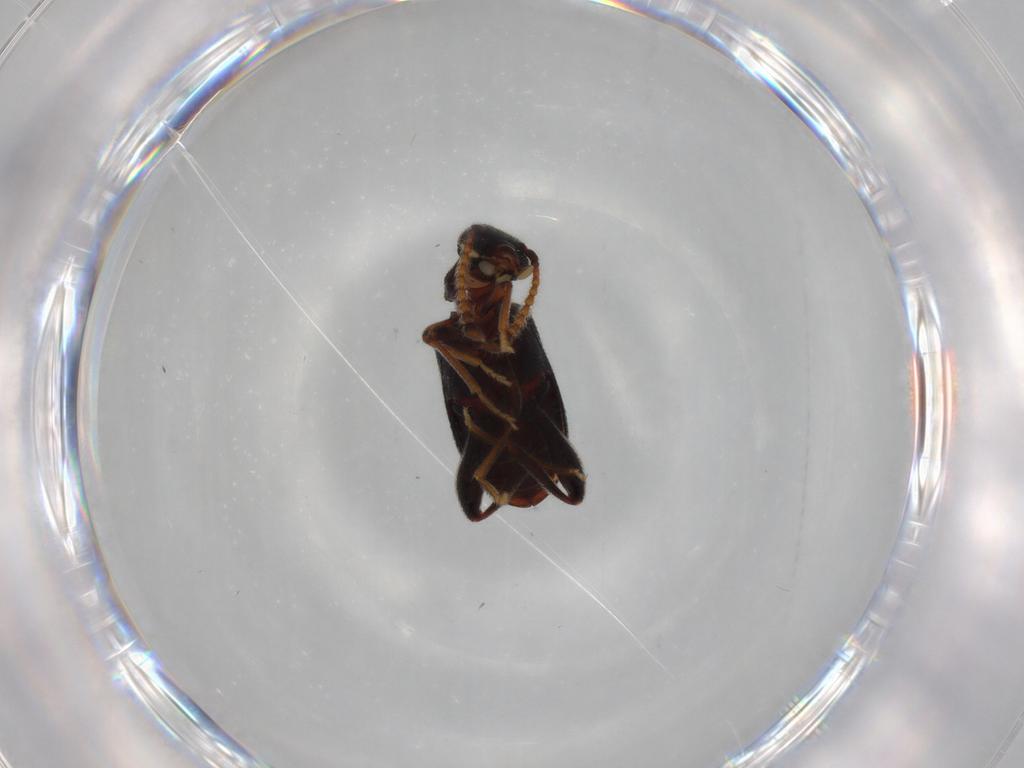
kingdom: Animalia
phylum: Arthropoda
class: Insecta
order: Coleoptera
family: Aderidae
